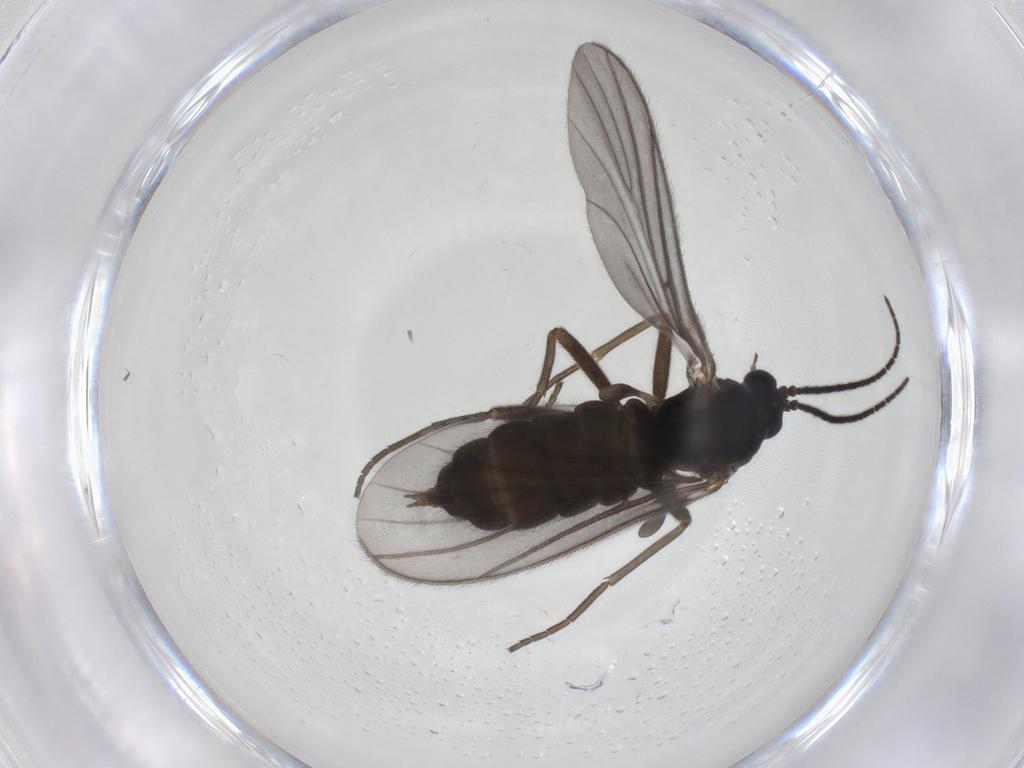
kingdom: Animalia
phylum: Arthropoda
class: Insecta
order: Diptera
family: Sciaridae
